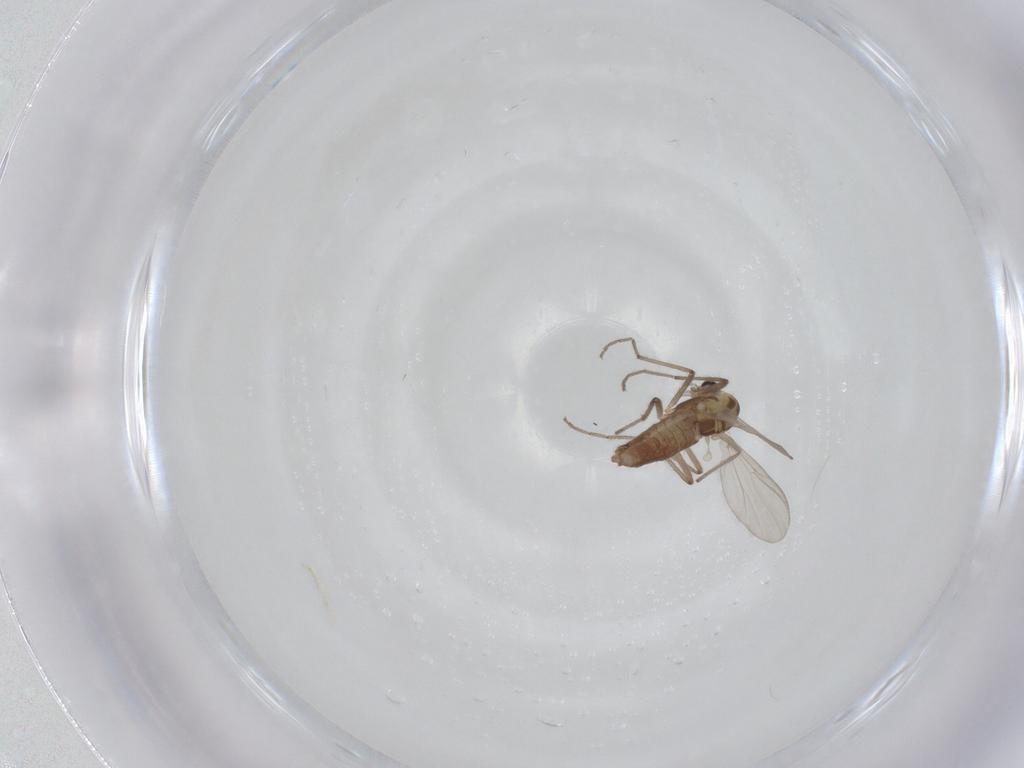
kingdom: Animalia
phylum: Arthropoda
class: Insecta
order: Diptera
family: Chironomidae
